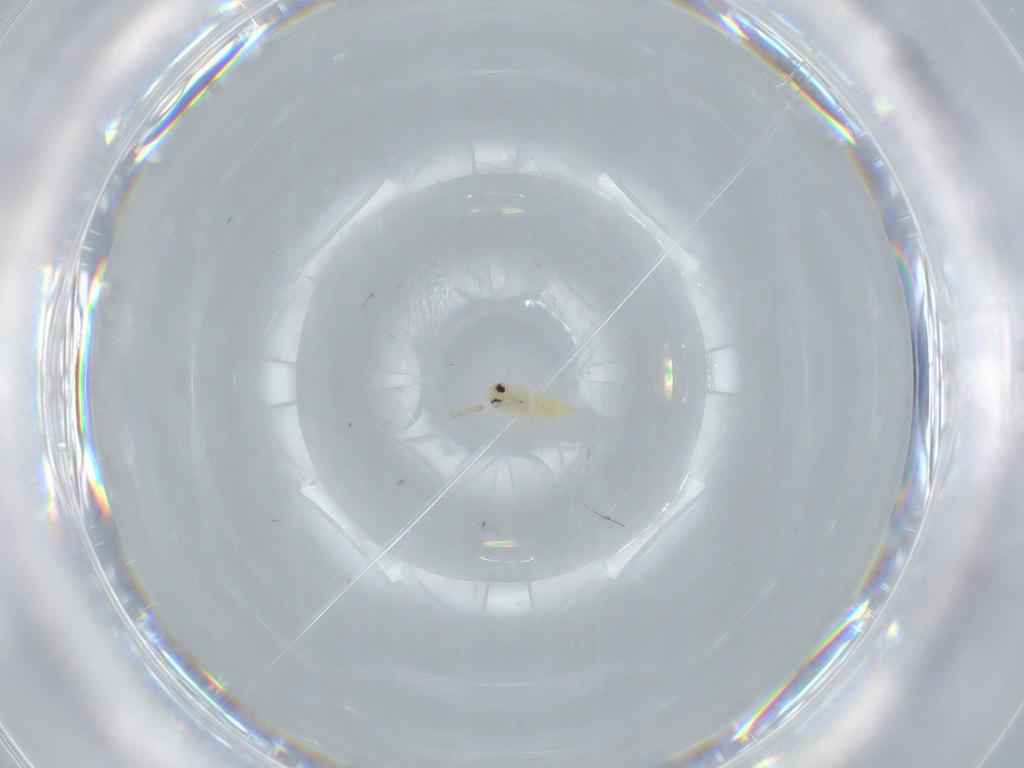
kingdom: Animalia
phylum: Arthropoda
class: Insecta
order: Hemiptera
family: Aleyrodidae
